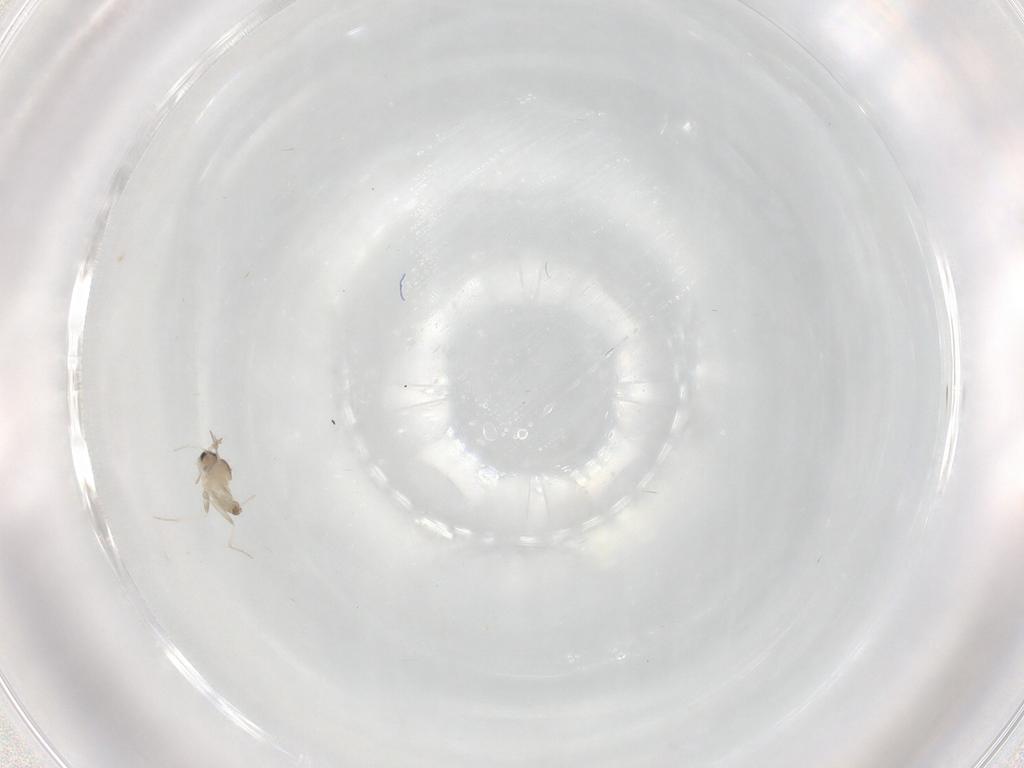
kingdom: Animalia
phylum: Arthropoda
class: Insecta
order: Diptera
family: Cecidomyiidae
